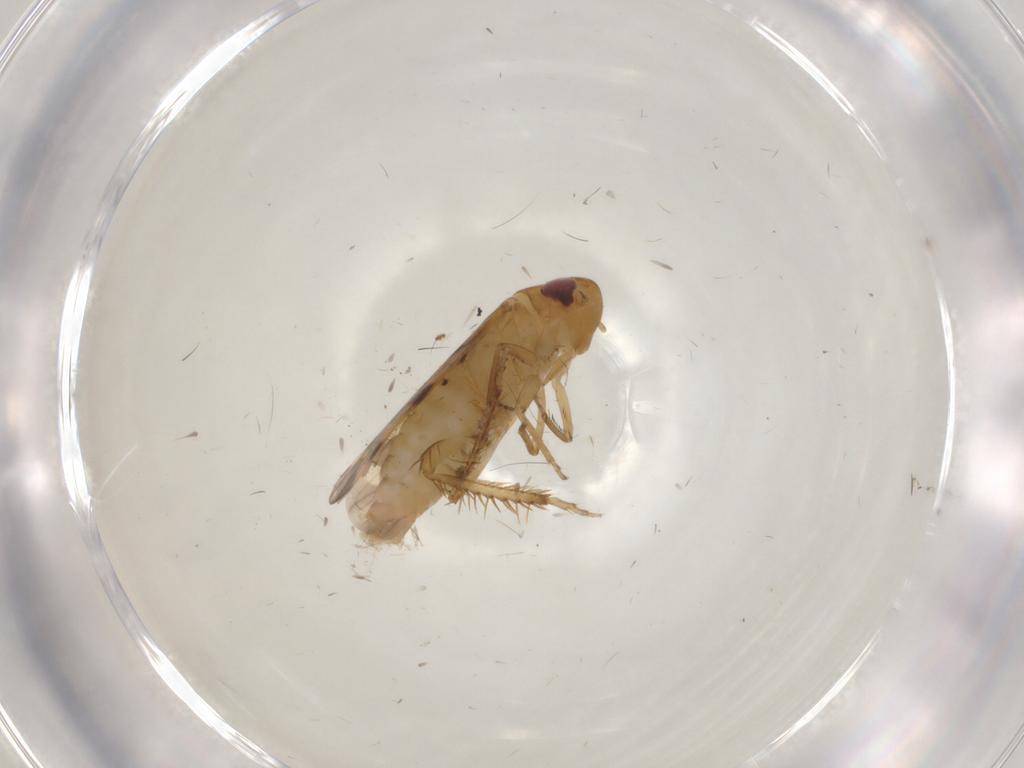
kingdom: Animalia
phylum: Arthropoda
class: Insecta
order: Hemiptera
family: Cicadellidae
